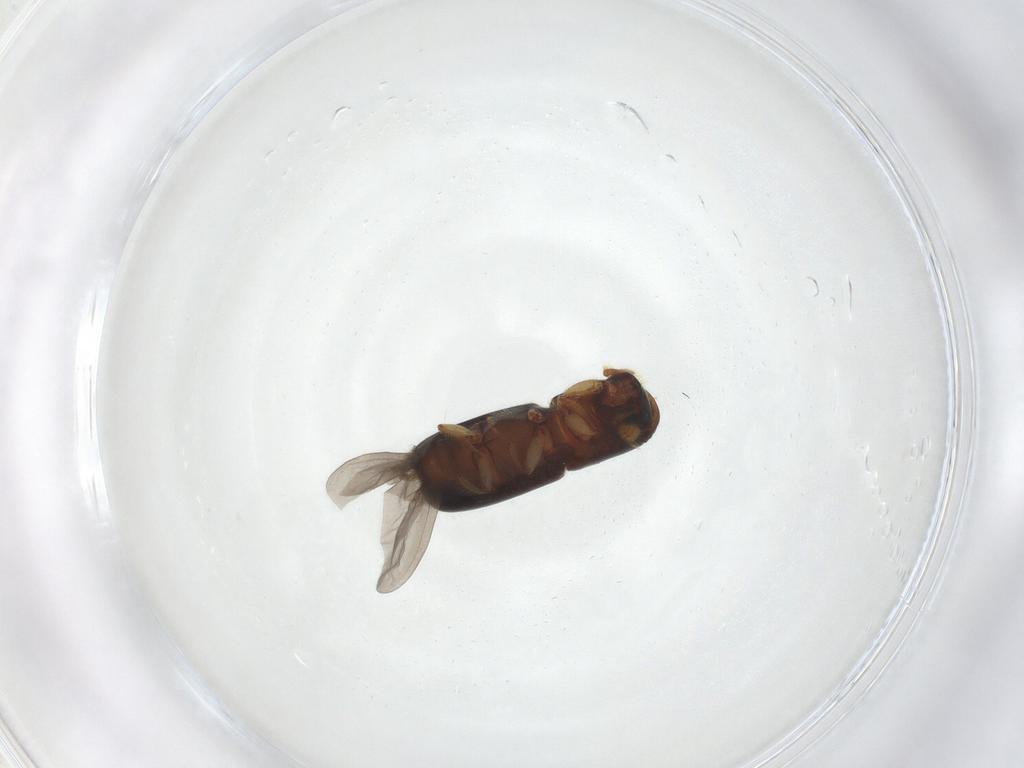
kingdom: Animalia
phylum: Arthropoda
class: Insecta
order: Coleoptera
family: Curculionidae
